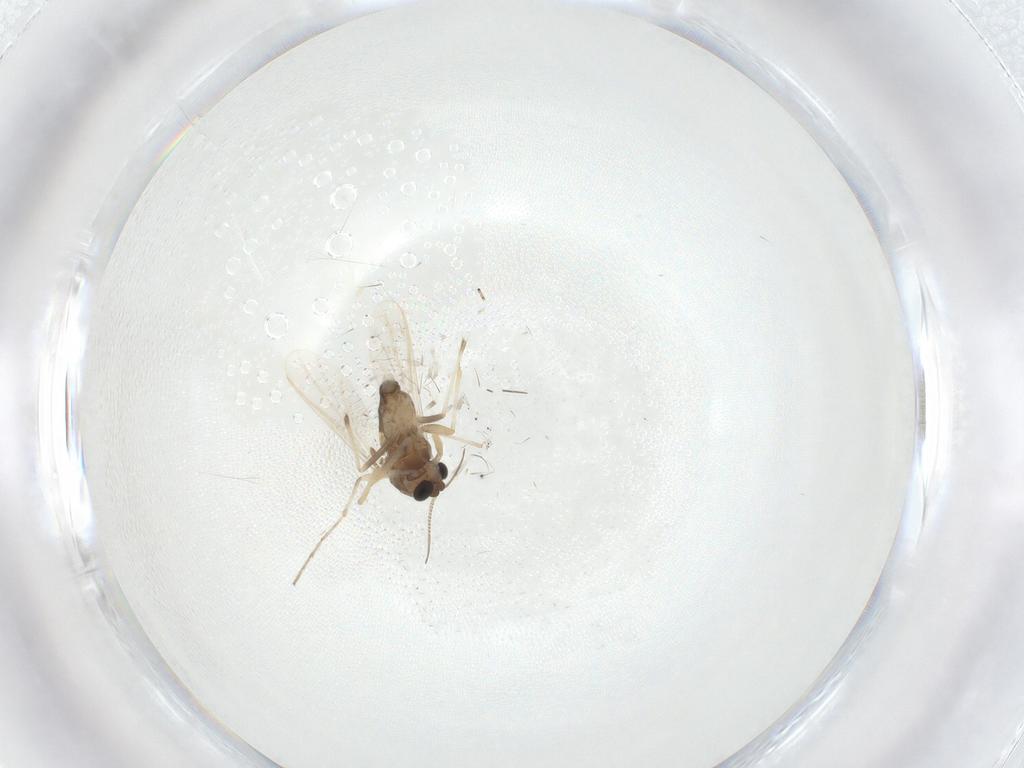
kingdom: Animalia
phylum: Arthropoda
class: Insecta
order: Diptera
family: Chironomidae
